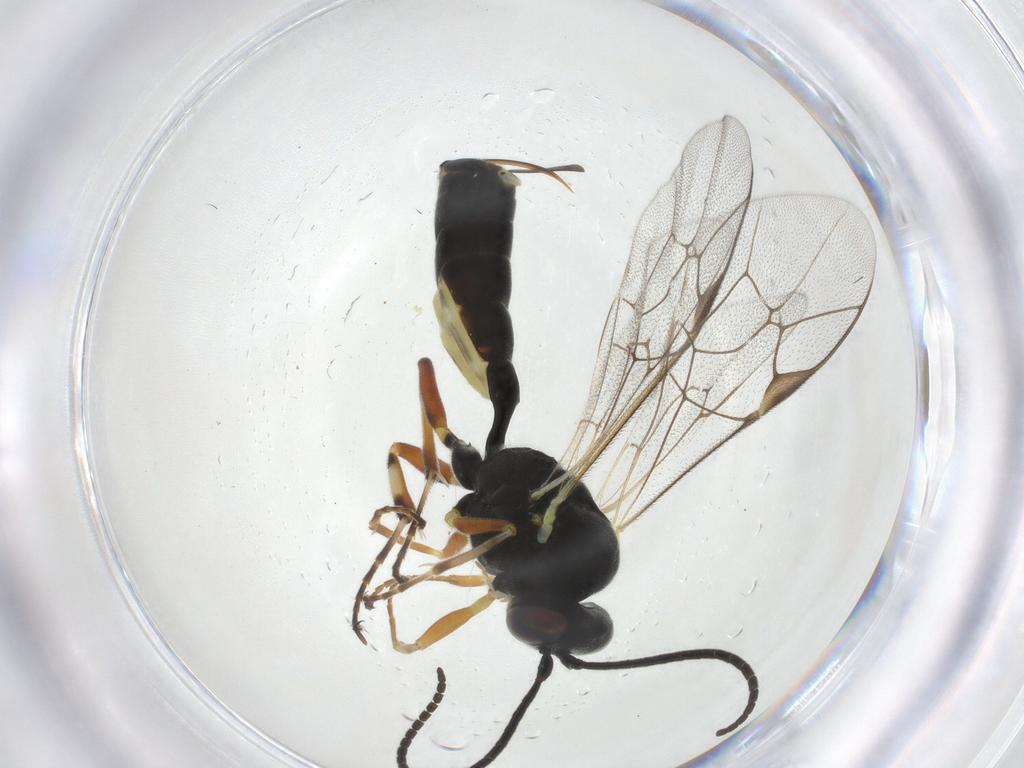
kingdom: Animalia
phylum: Arthropoda
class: Insecta
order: Hymenoptera
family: Ichneumonidae
